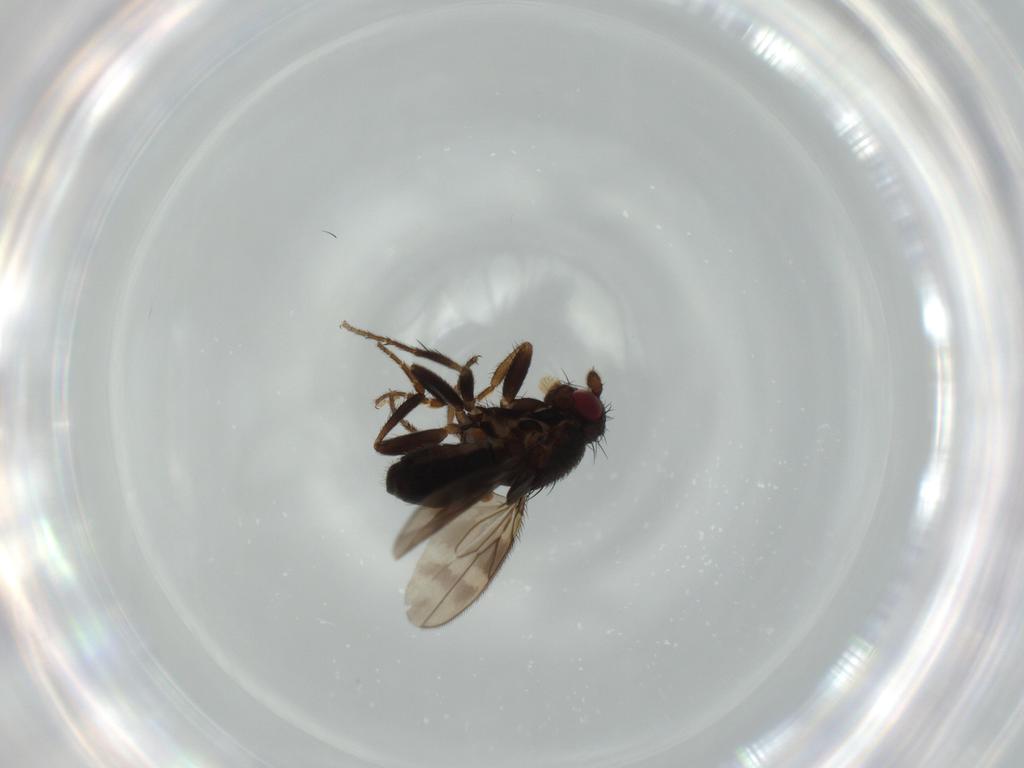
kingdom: Animalia
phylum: Arthropoda
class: Insecta
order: Diptera
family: Sphaeroceridae
